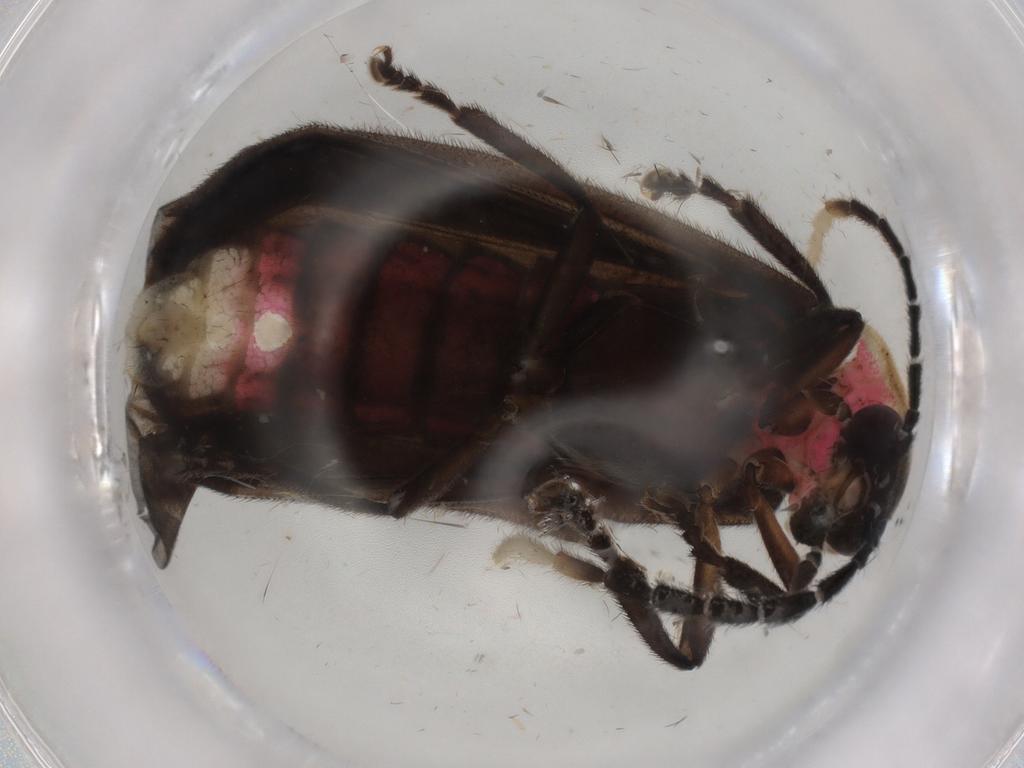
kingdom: Animalia
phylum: Arthropoda
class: Insecta
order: Coleoptera
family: Lampyridae
